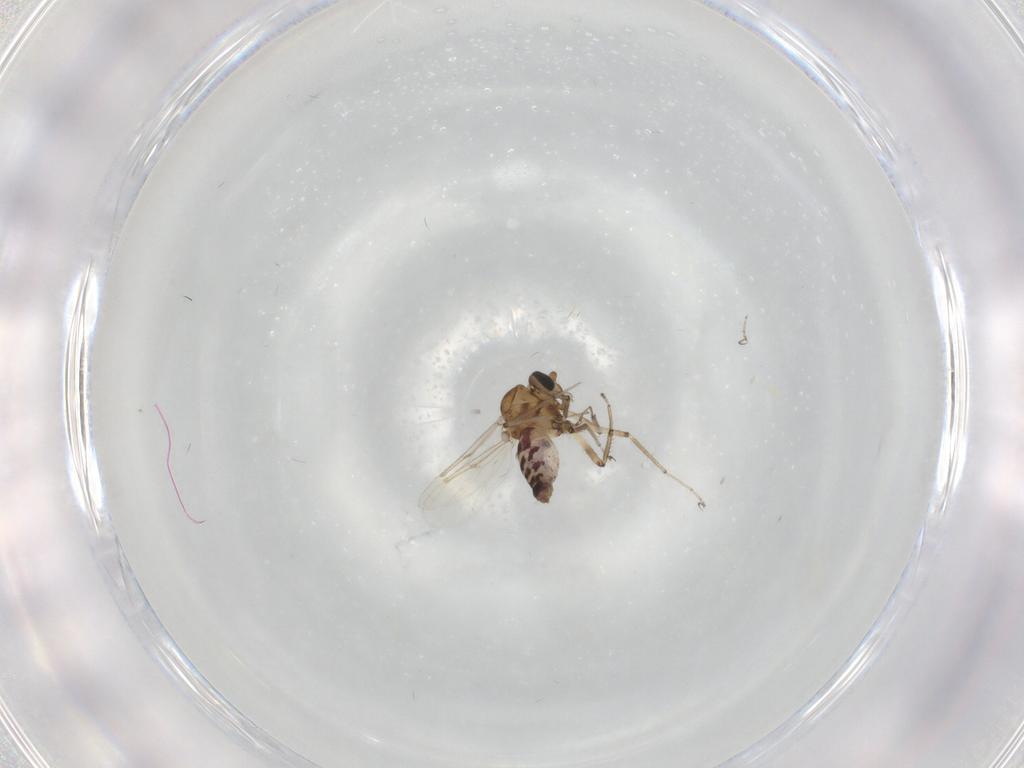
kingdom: Animalia
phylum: Arthropoda
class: Insecta
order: Diptera
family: Ceratopogonidae
